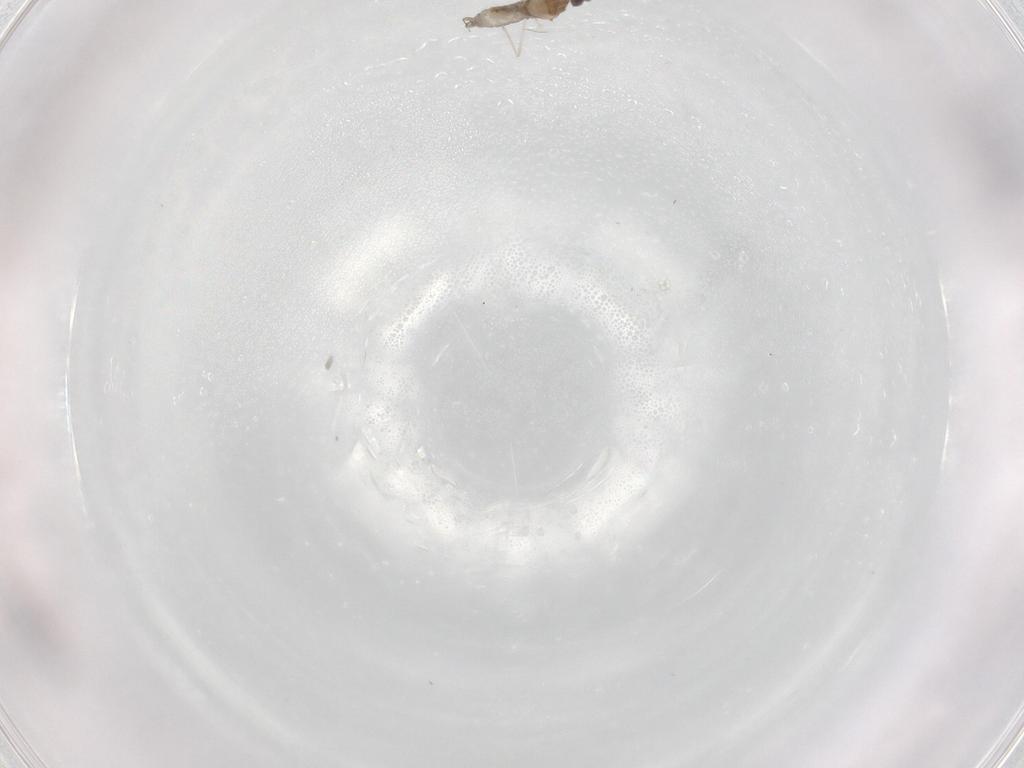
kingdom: Animalia
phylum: Arthropoda
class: Insecta
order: Diptera
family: Cecidomyiidae
